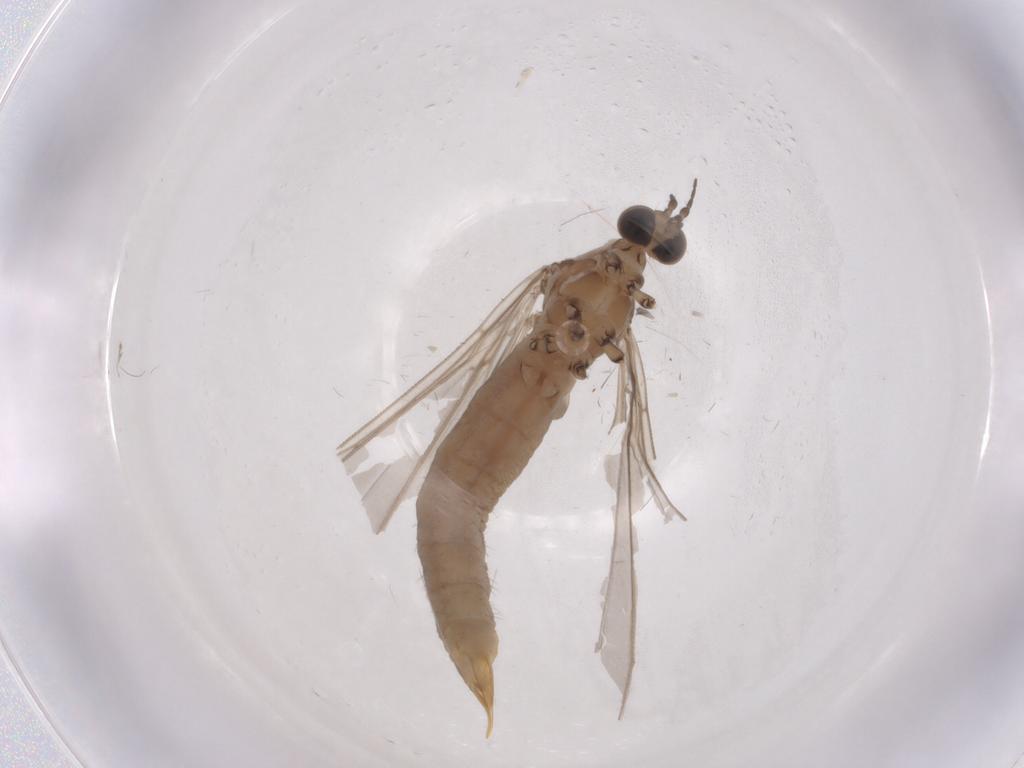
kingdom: Animalia
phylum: Arthropoda
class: Insecta
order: Diptera
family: Limoniidae
